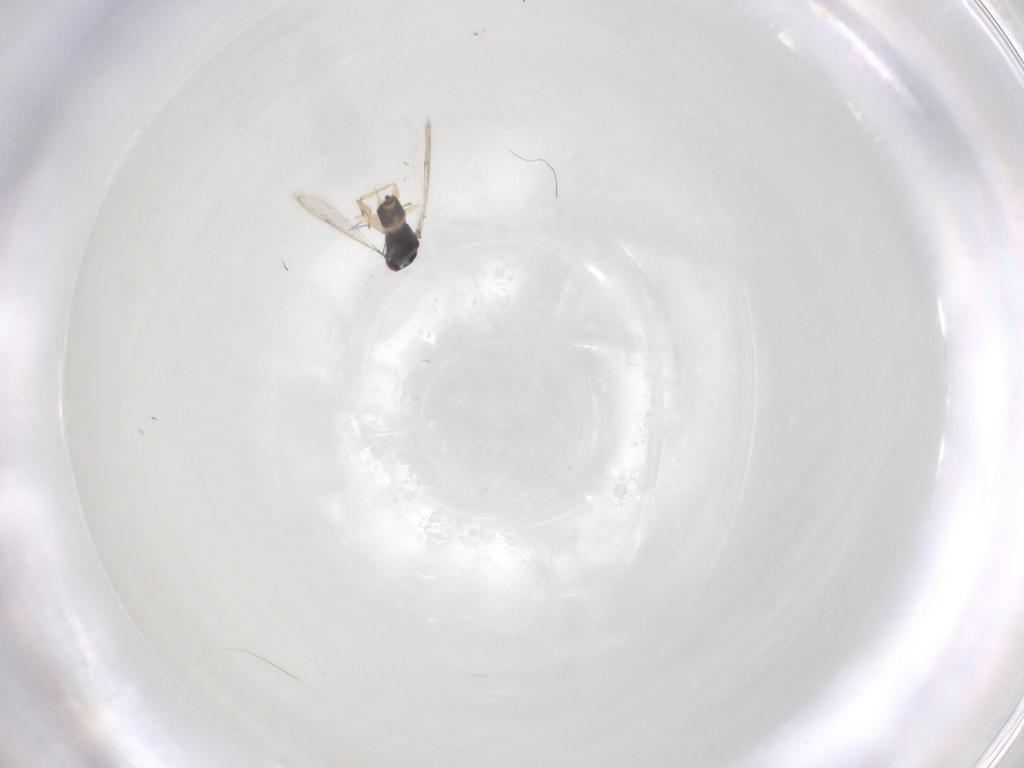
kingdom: Animalia
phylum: Arthropoda
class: Insecta
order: Hymenoptera
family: Eulophidae
